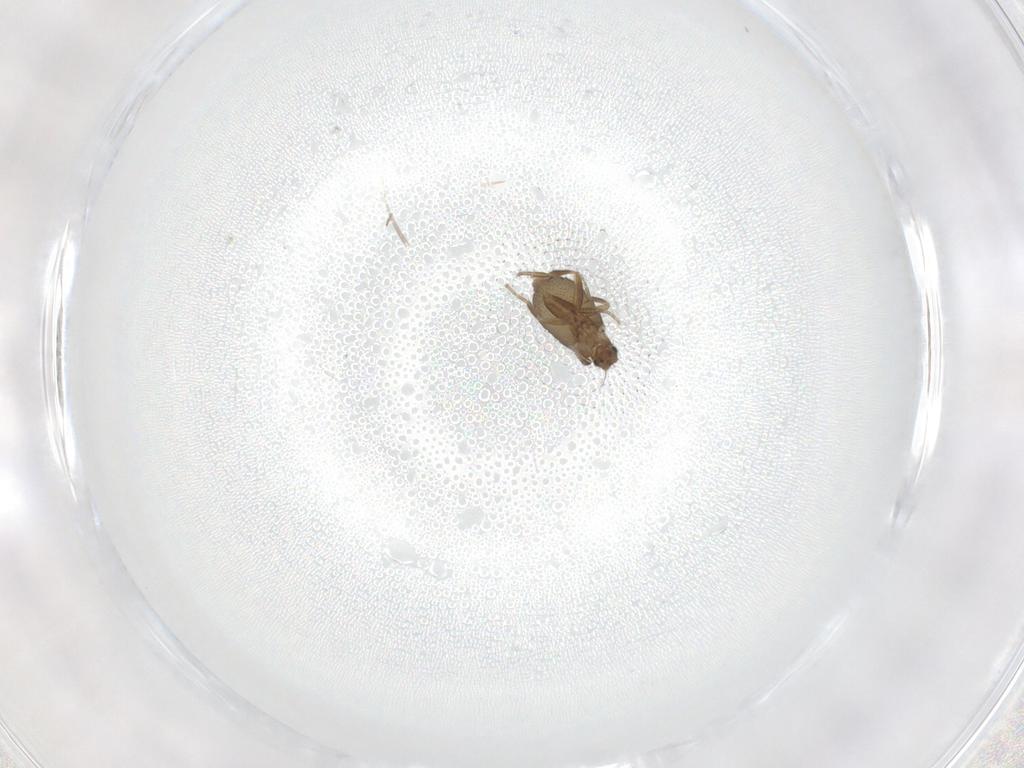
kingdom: Animalia
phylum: Arthropoda
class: Insecta
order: Diptera
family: Phoridae
